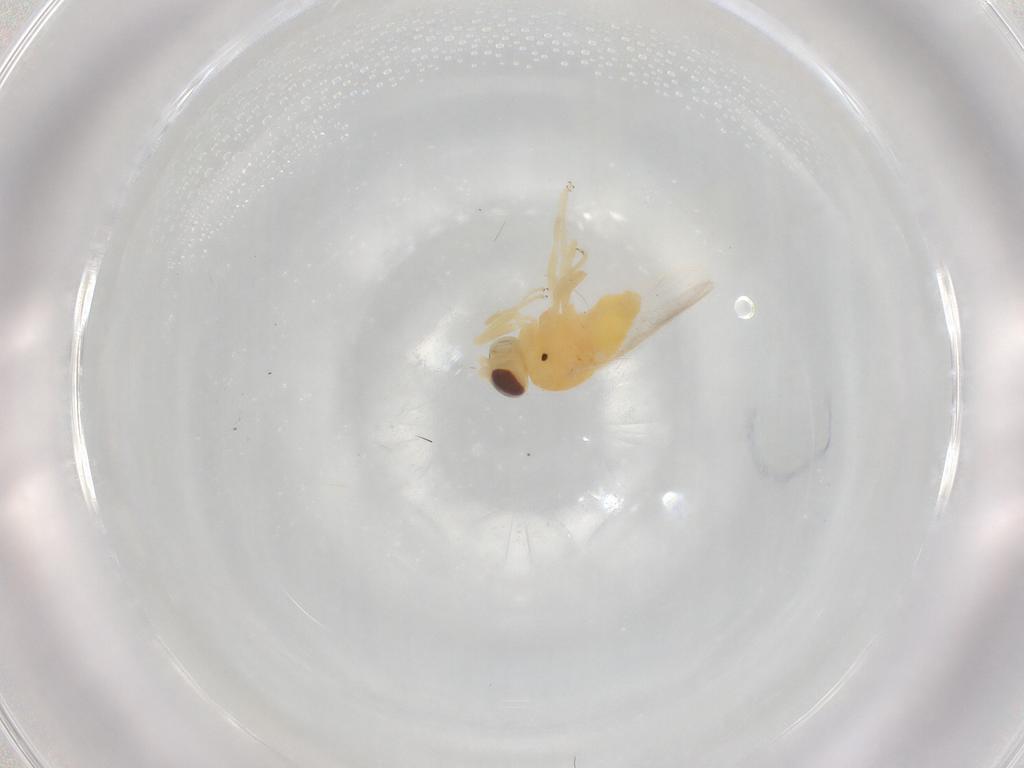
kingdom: Animalia
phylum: Arthropoda
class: Insecta
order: Diptera
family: Chloropidae
